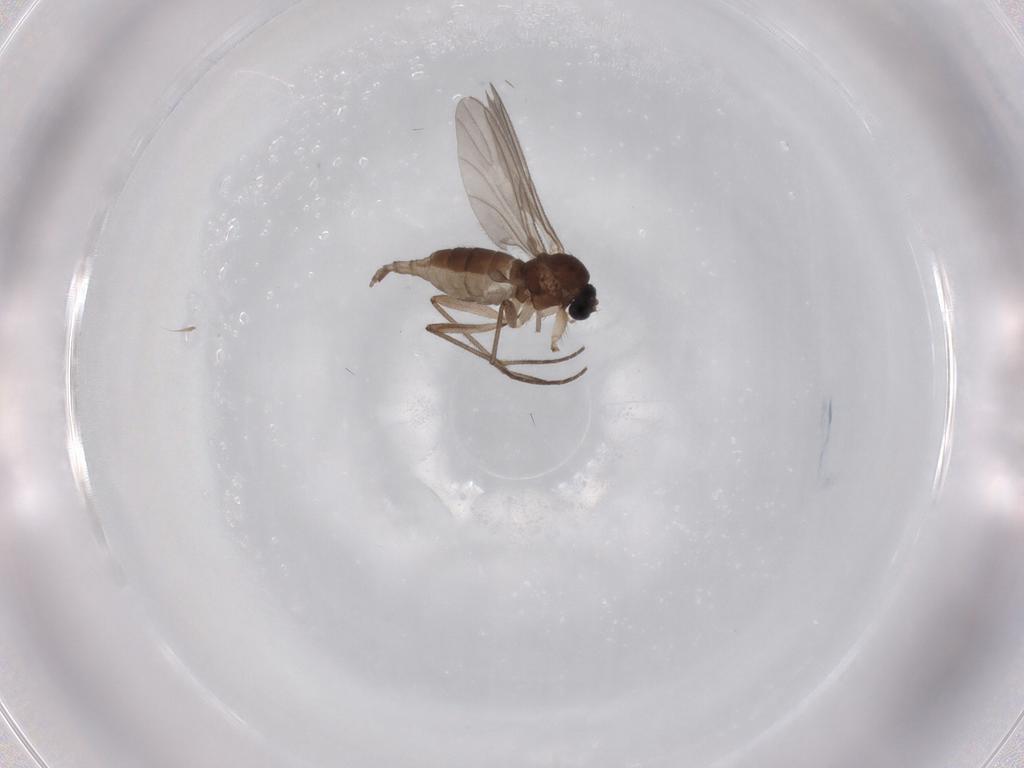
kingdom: Animalia
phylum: Arthropoda
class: Insecta
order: Diptera
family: Sciaridae
